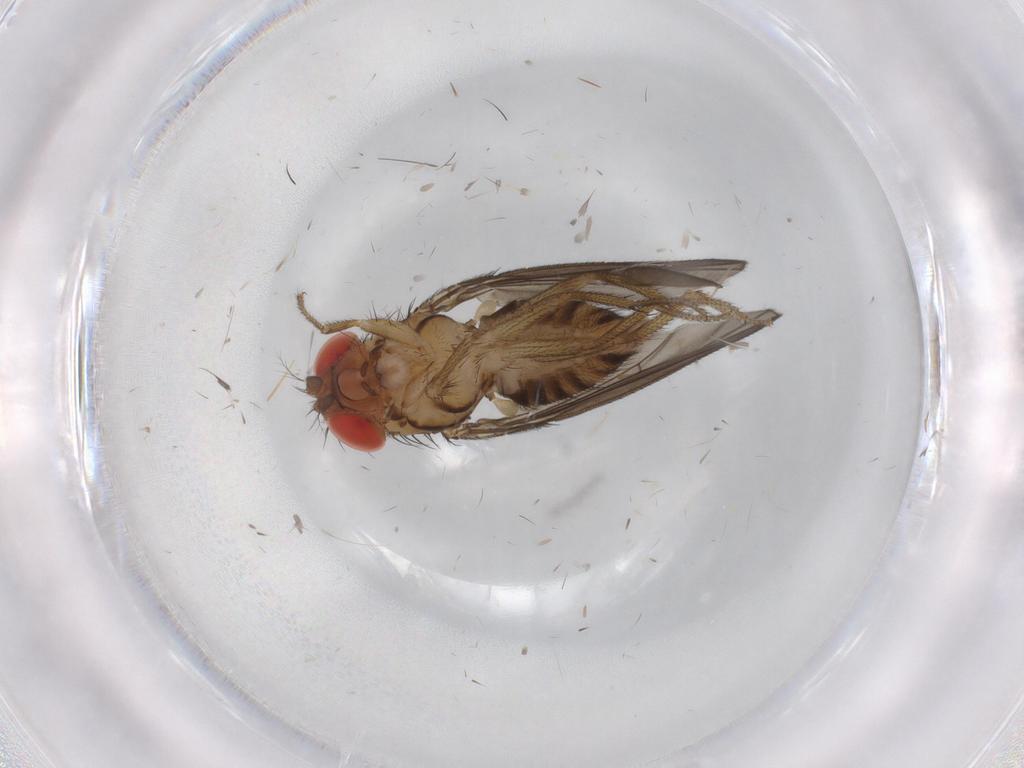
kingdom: Animalia
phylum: Arthropoda
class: Insecta
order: Diptera
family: Drosophilidae
